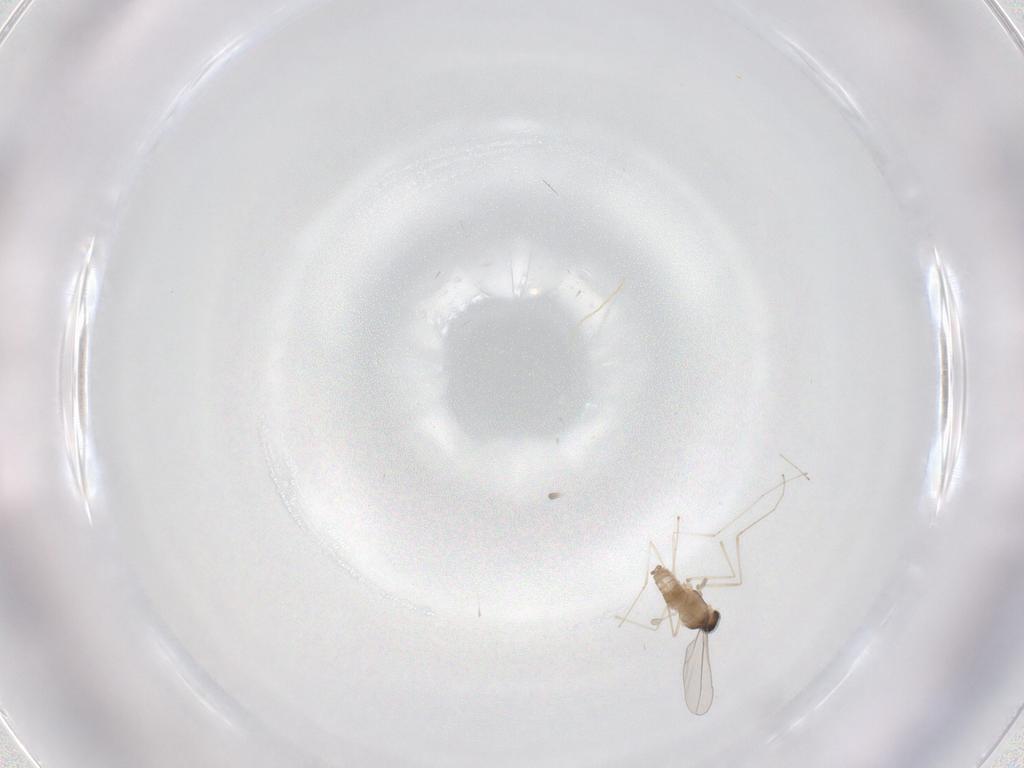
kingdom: Animalia
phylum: Arthropoda
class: Insecta
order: Diptera
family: Cecidomyiidae
